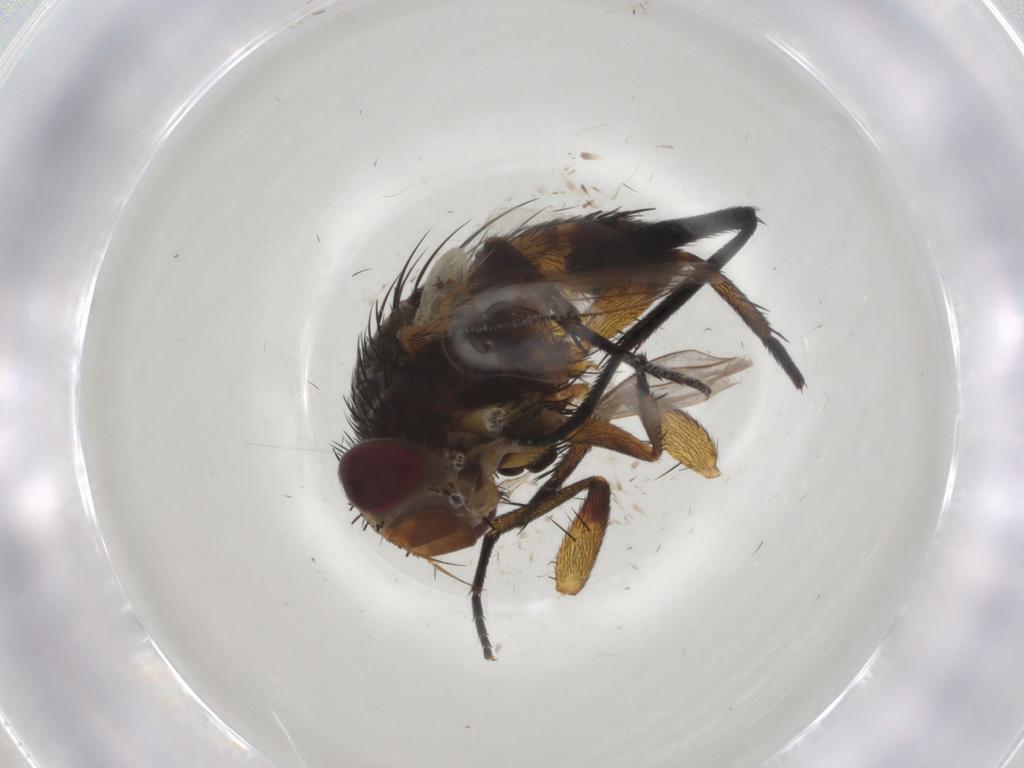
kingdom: Animalia
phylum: Arthropoda
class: Insecta
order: Diptera
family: Muscidae
